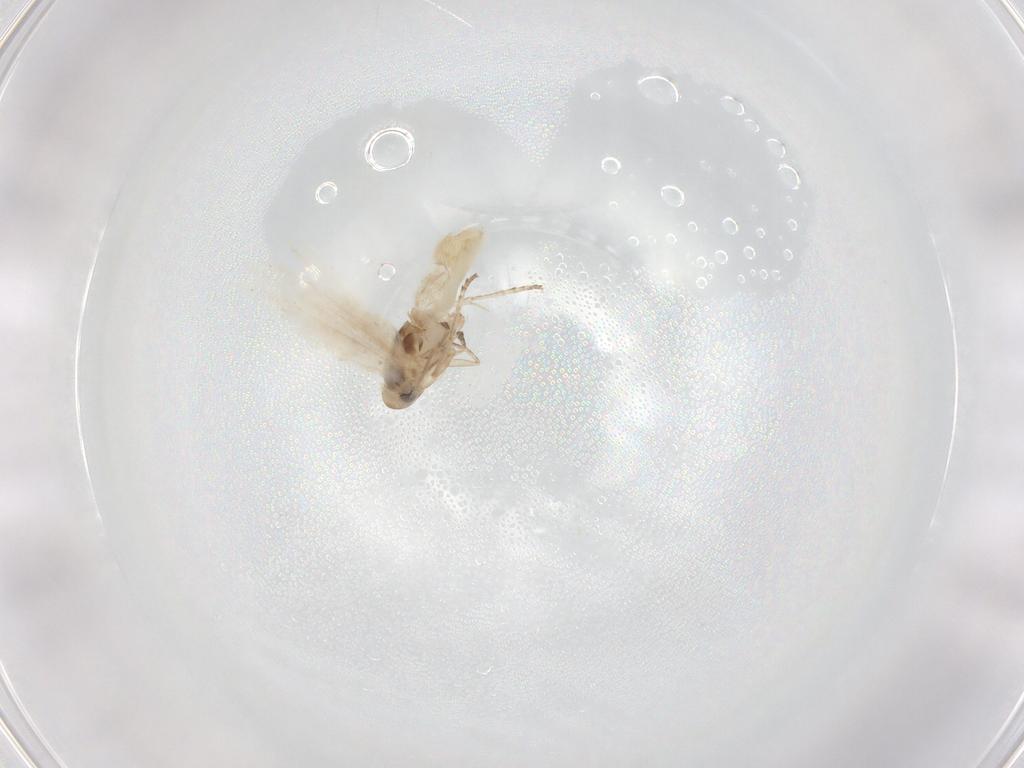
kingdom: Animalia
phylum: Arthropoda
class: Insecta
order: Lepidoptera
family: Depressariidae
